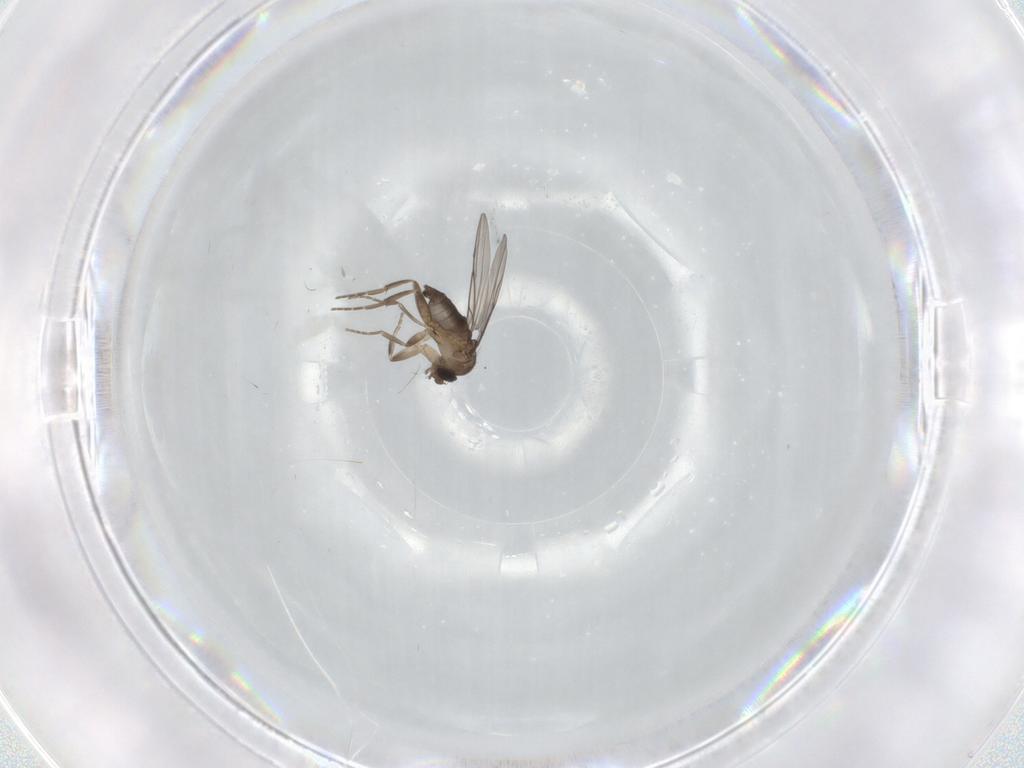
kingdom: Animalia
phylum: Arthropoda
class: Insecta
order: Diptera
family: Phoridae
